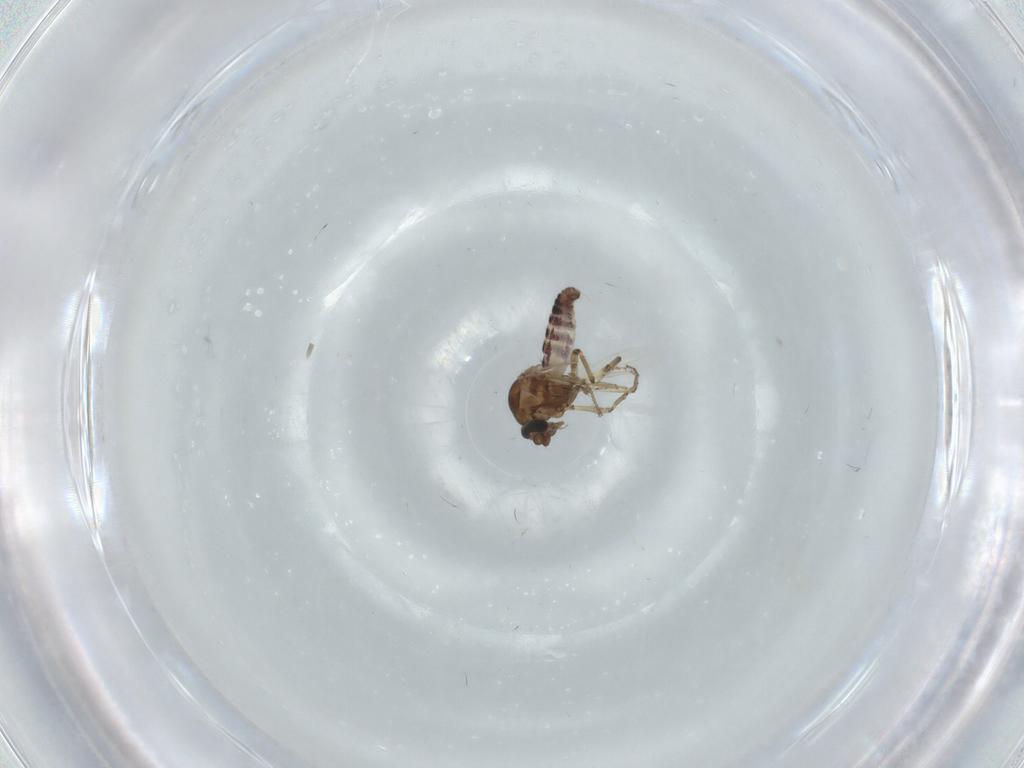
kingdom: Animalia
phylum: Arthropoda
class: Insecta
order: Diptera
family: Ceratopogonidae
